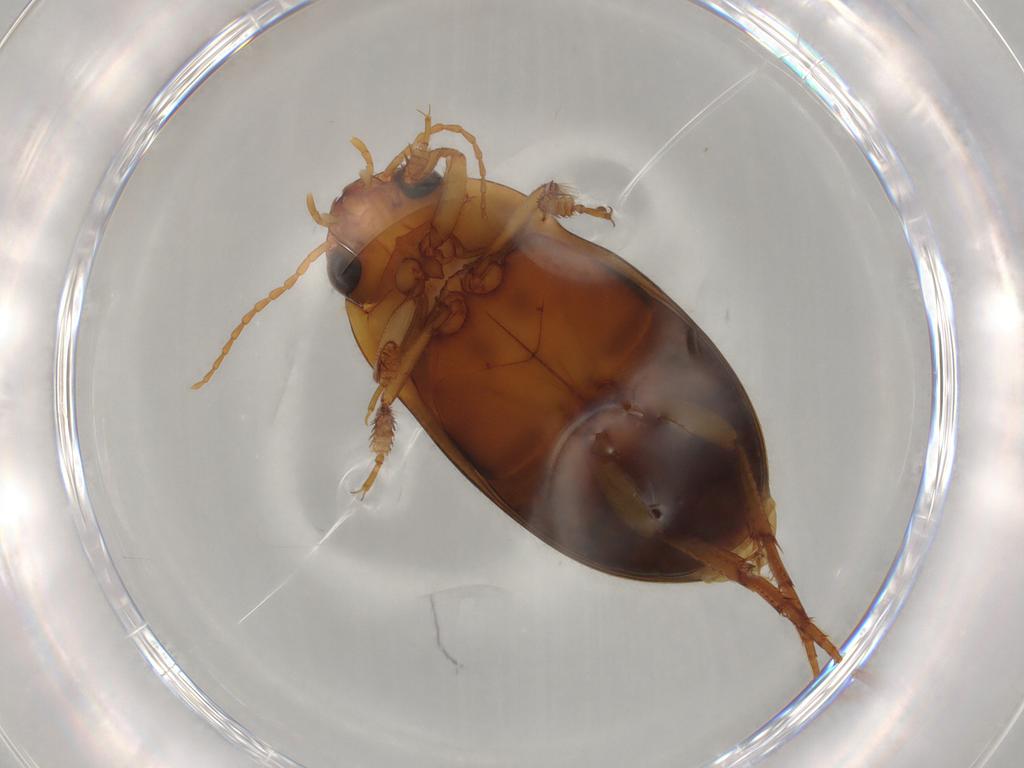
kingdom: Animalia
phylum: Arthropoda
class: Insecta
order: Coleoptera
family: Dytiscidae
